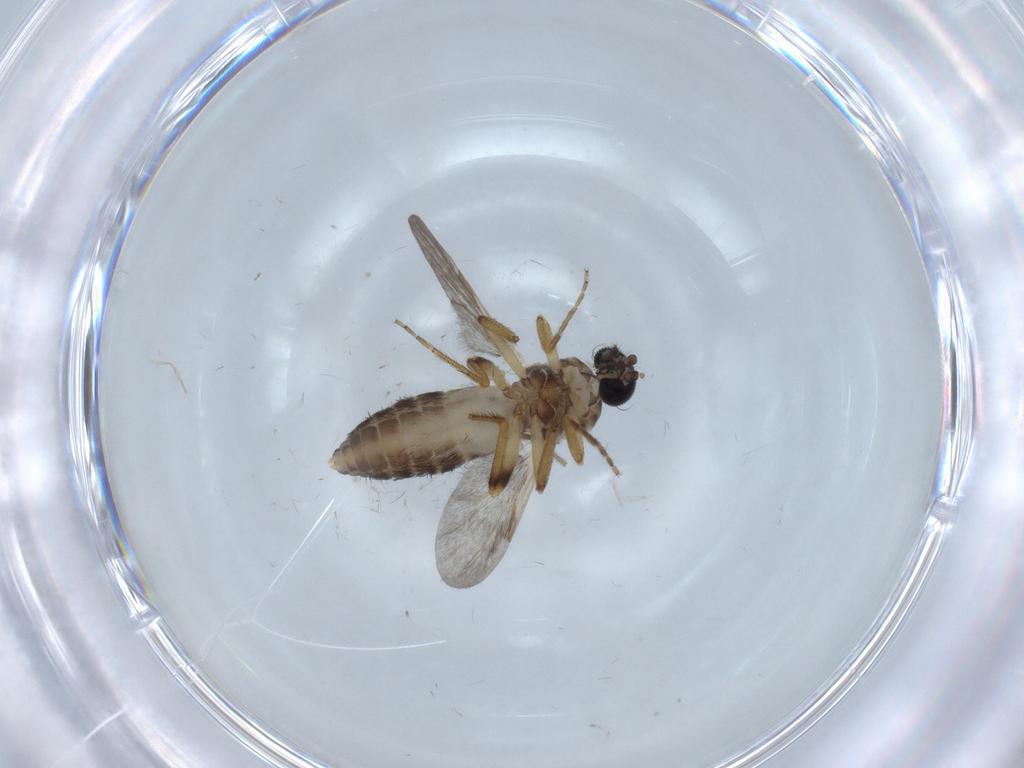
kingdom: Animalia
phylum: Arthropoda
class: Insecta
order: Diptera
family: Cecidomyiidae
